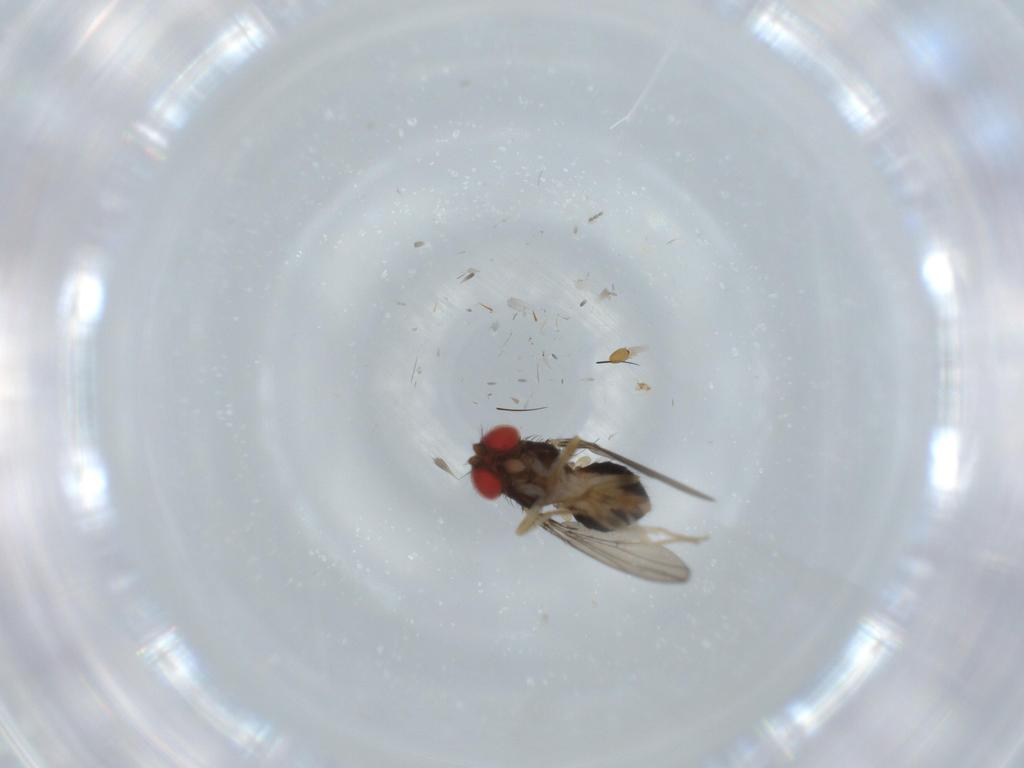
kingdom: Animalia
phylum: Arthropoda
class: Insecta
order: Diptera
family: Drosophilidae
